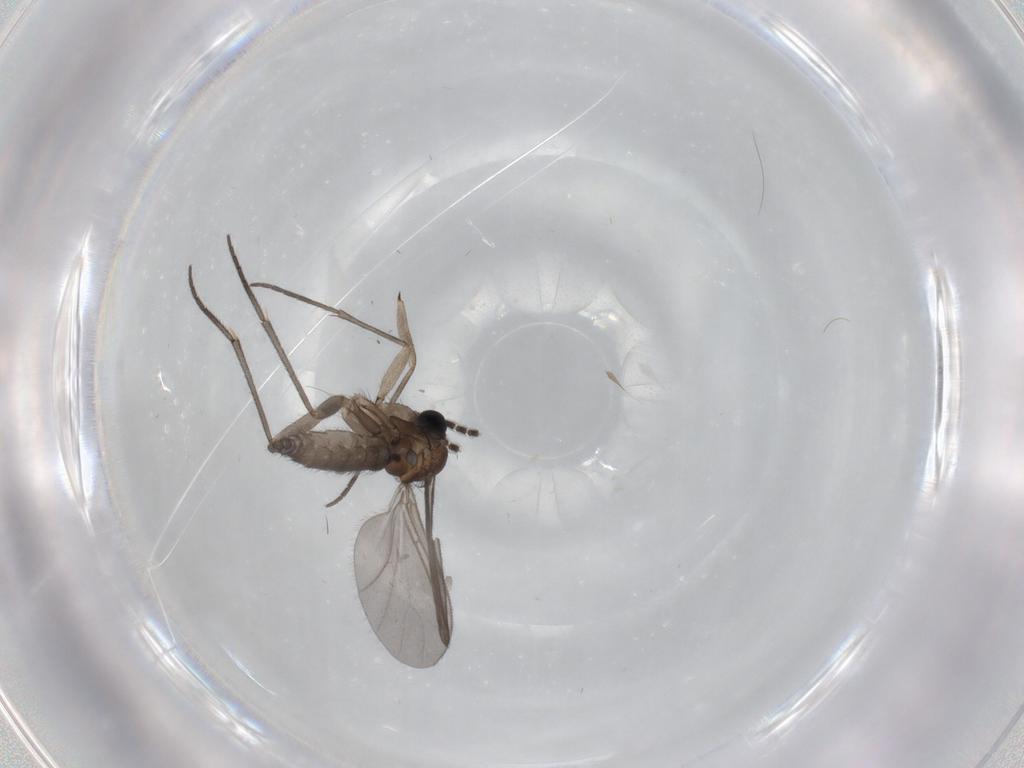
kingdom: Animalia
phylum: Arthropoda
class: Insecta
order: Diptera
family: Sciaridae
